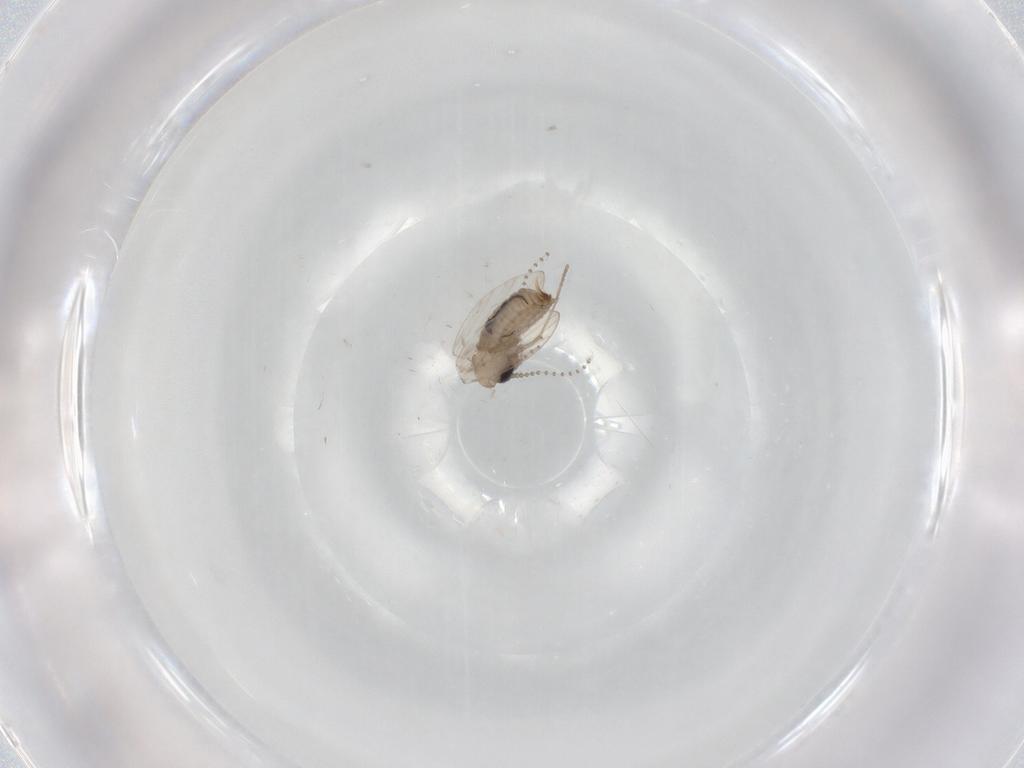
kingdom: Animalia
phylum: Arthropoda
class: Insecta
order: Diptera
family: Psychodidae
